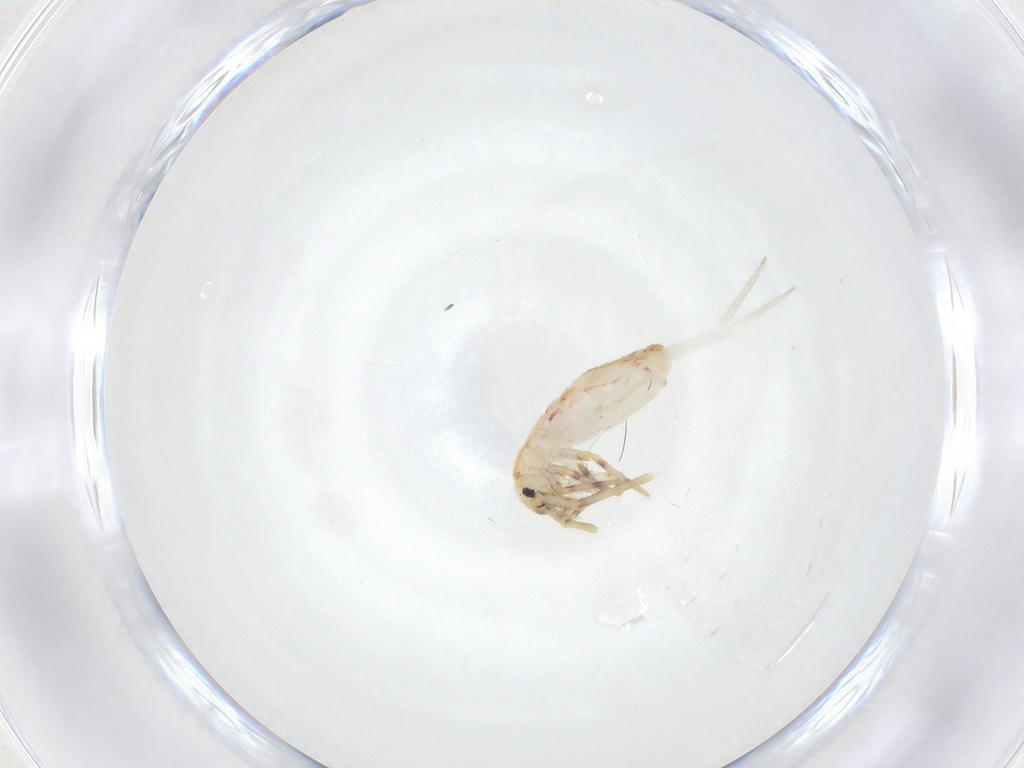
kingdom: Animalia
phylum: Arthropoda
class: Collembola
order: Entomobryomorpha
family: Entomobryidae
